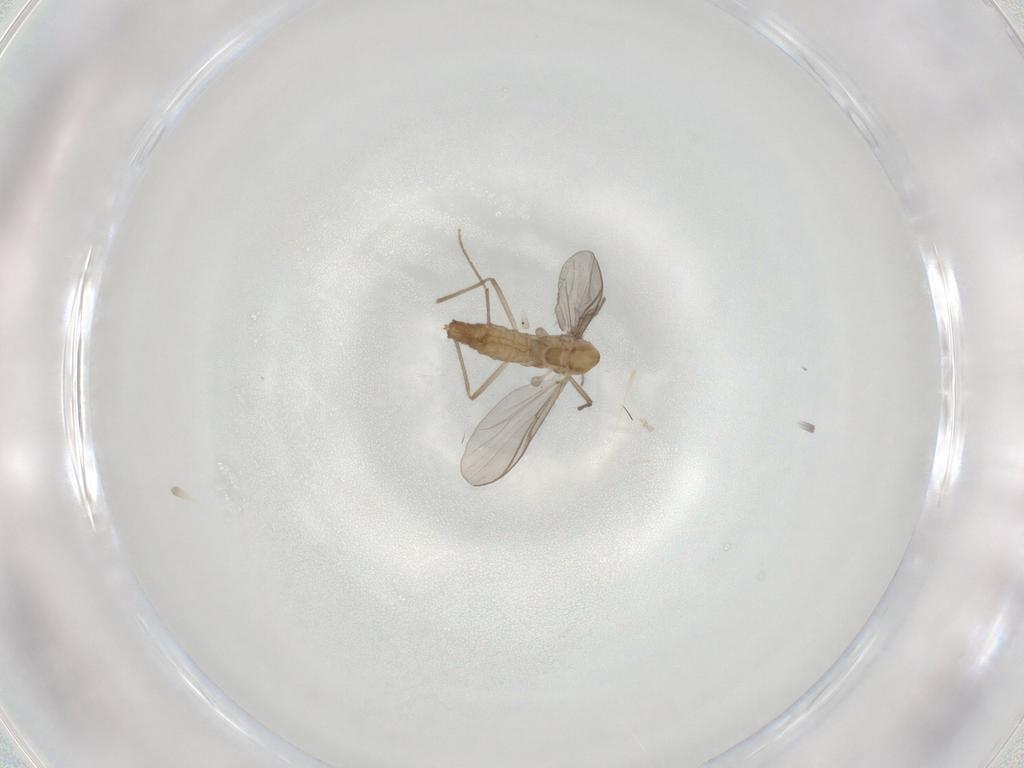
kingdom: Animalia
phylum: Arthropoda
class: Insecta
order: Diptera
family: Chironomidae
